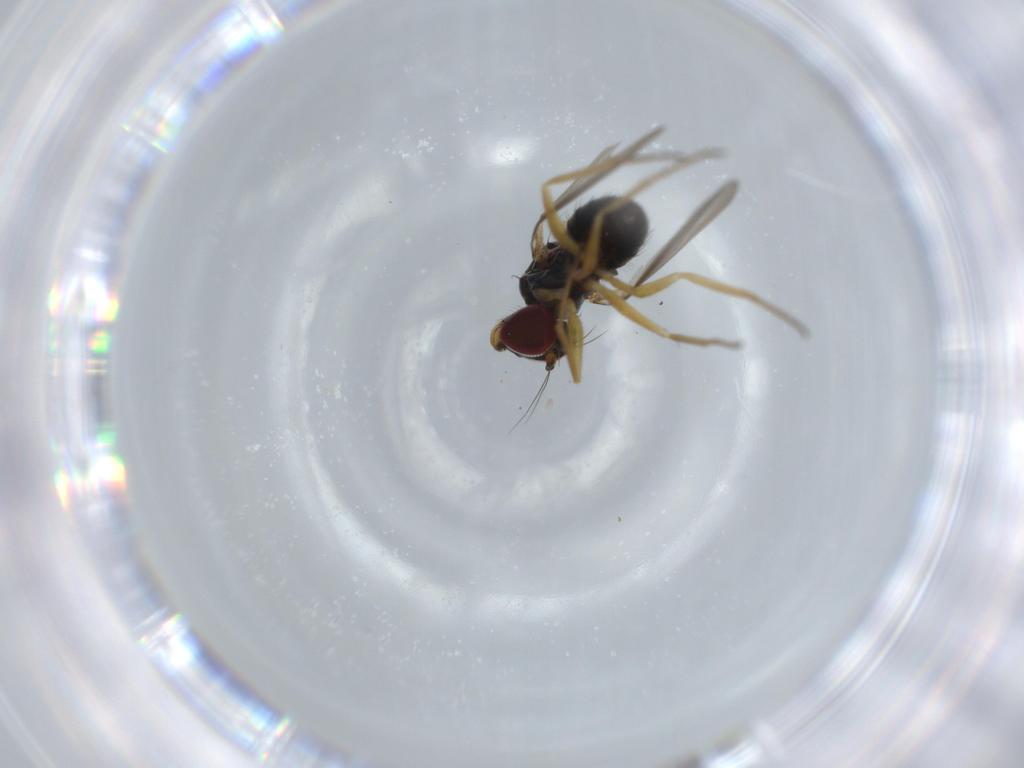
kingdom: Animalia
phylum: Arthropoda
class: Insecta
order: Diptera
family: Dolichopodidae
